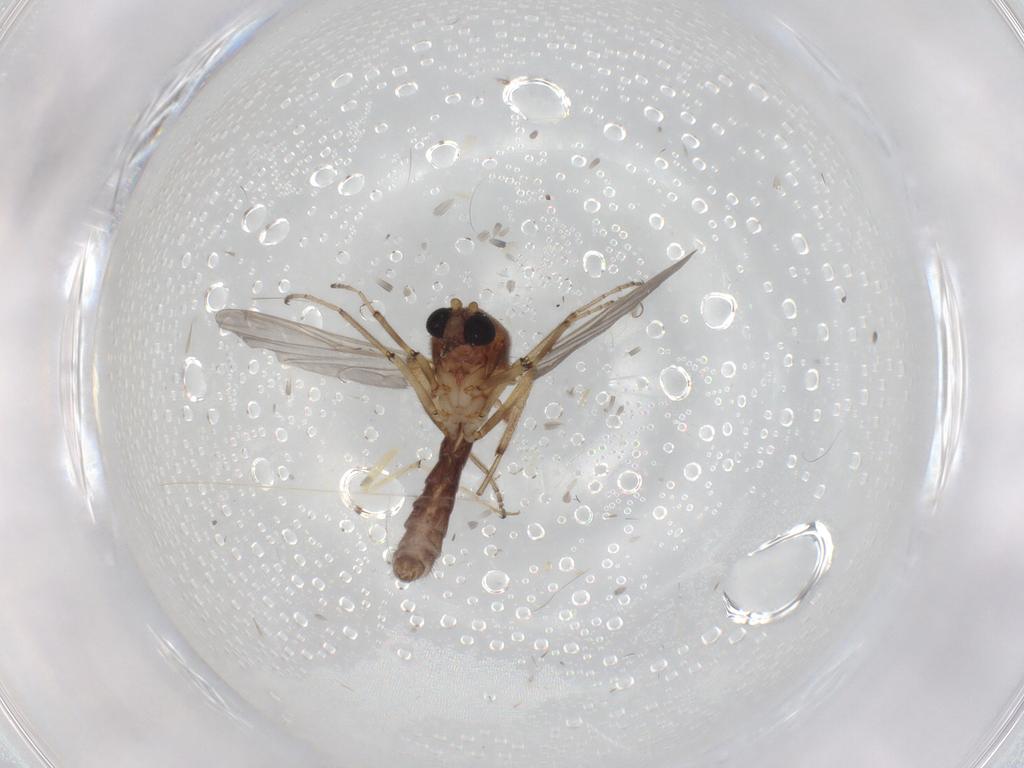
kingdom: Animalia
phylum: Arthropoda
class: Insecta
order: Diptera
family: Chironomidae
